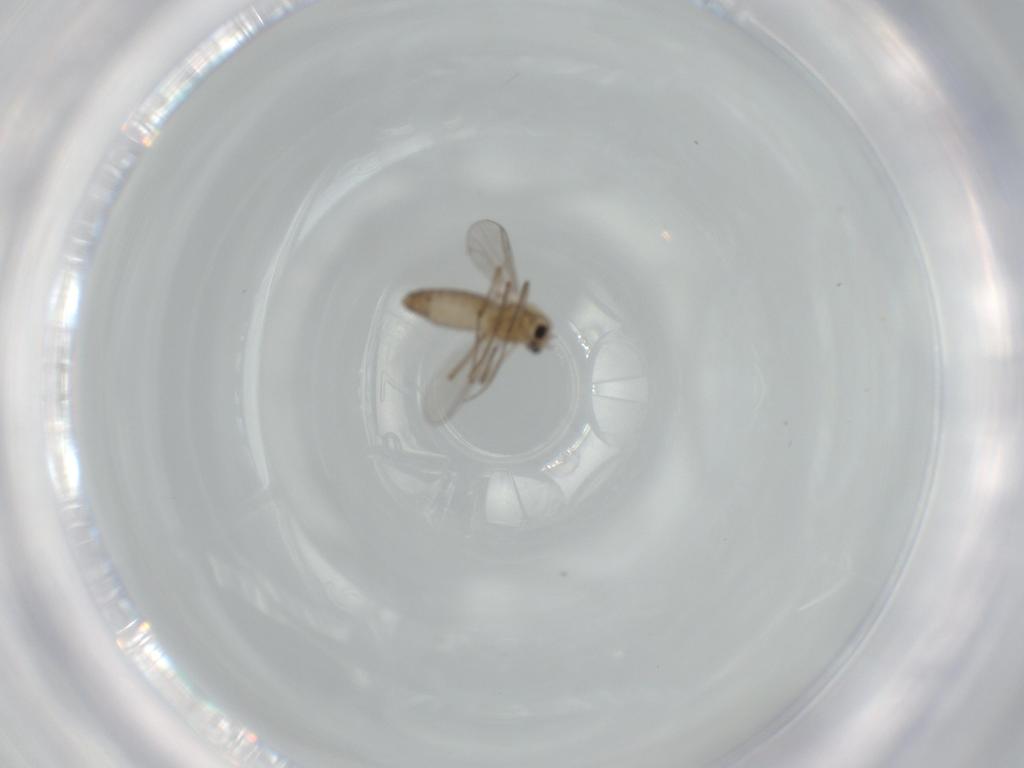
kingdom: Animalia
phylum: Arthropoda
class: Insecta
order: Diptera
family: Chironomidae
